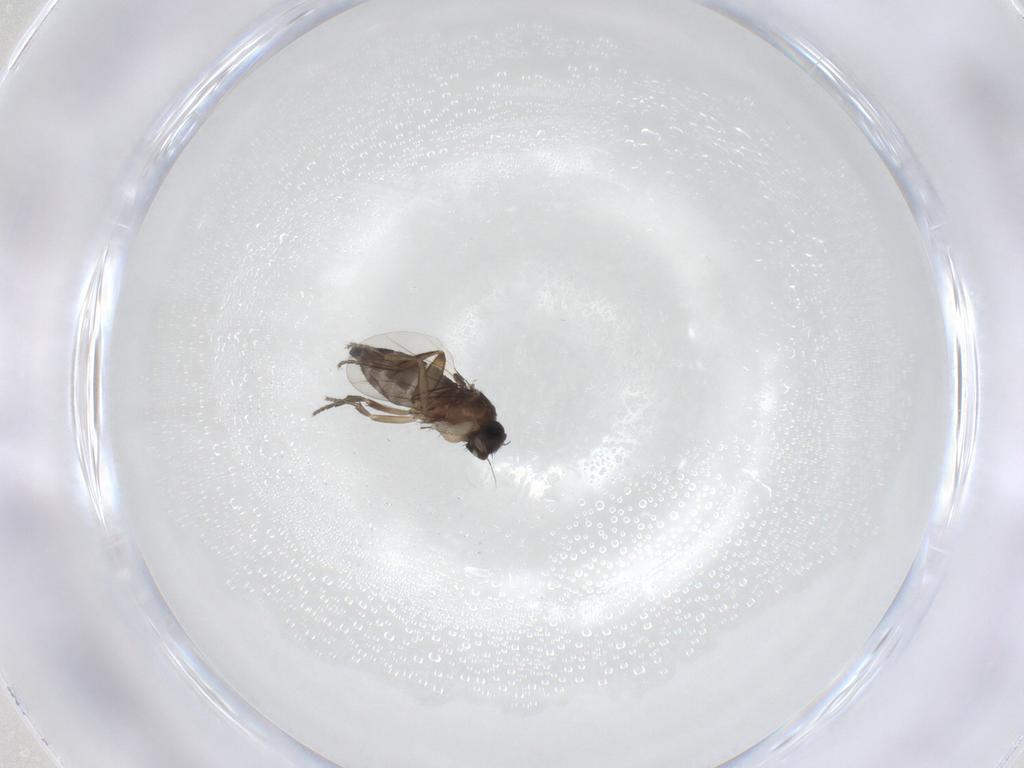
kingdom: Animalia
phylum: Arthropoda
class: Insecta
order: Diptera
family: Phoridae
